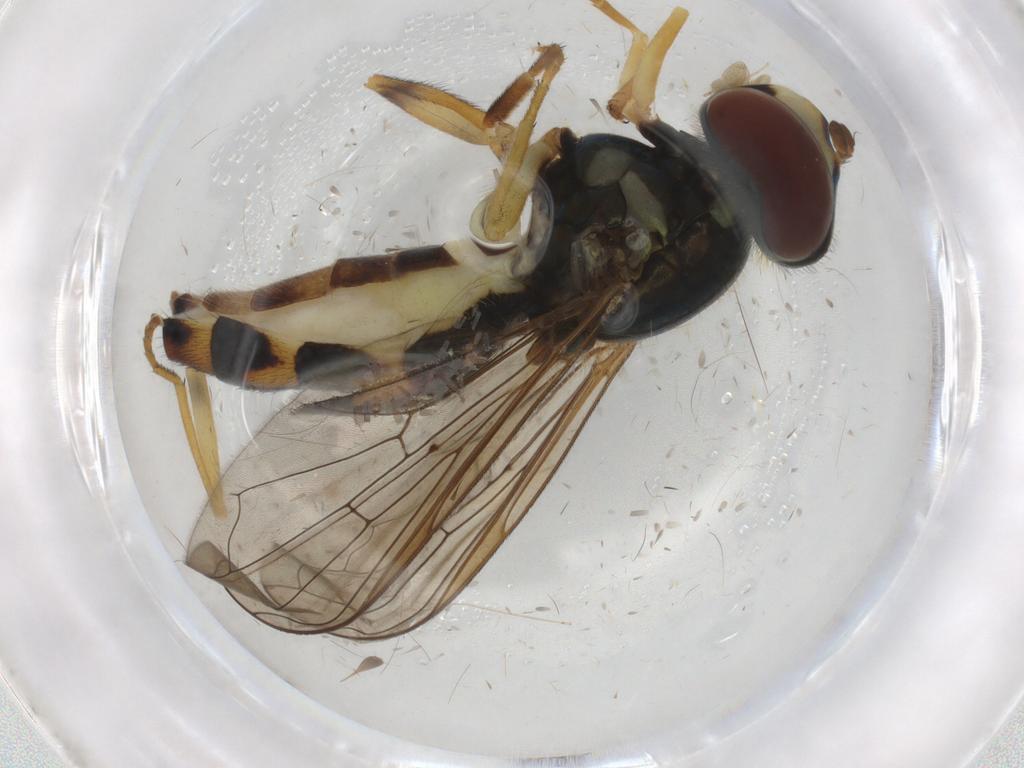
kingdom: Animalia
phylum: Arthropoda
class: Insecta
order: Diptera
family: Syrphidae
